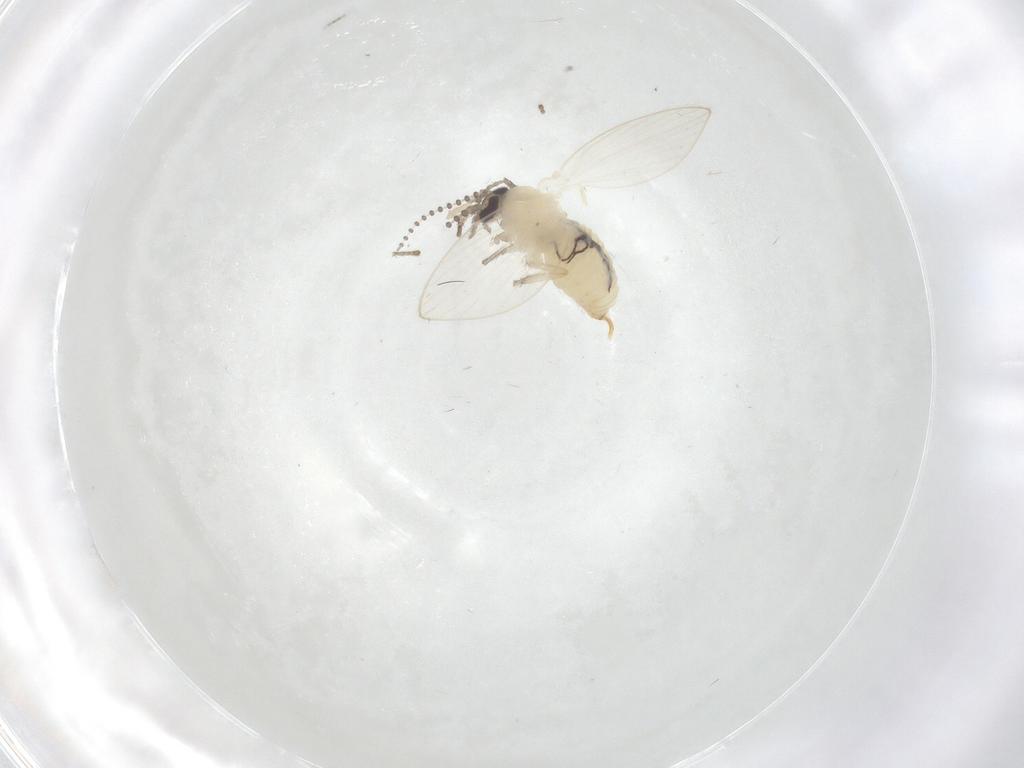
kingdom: Animalia
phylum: Arthropoda
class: Insecta
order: Diptera
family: Psychodidae
